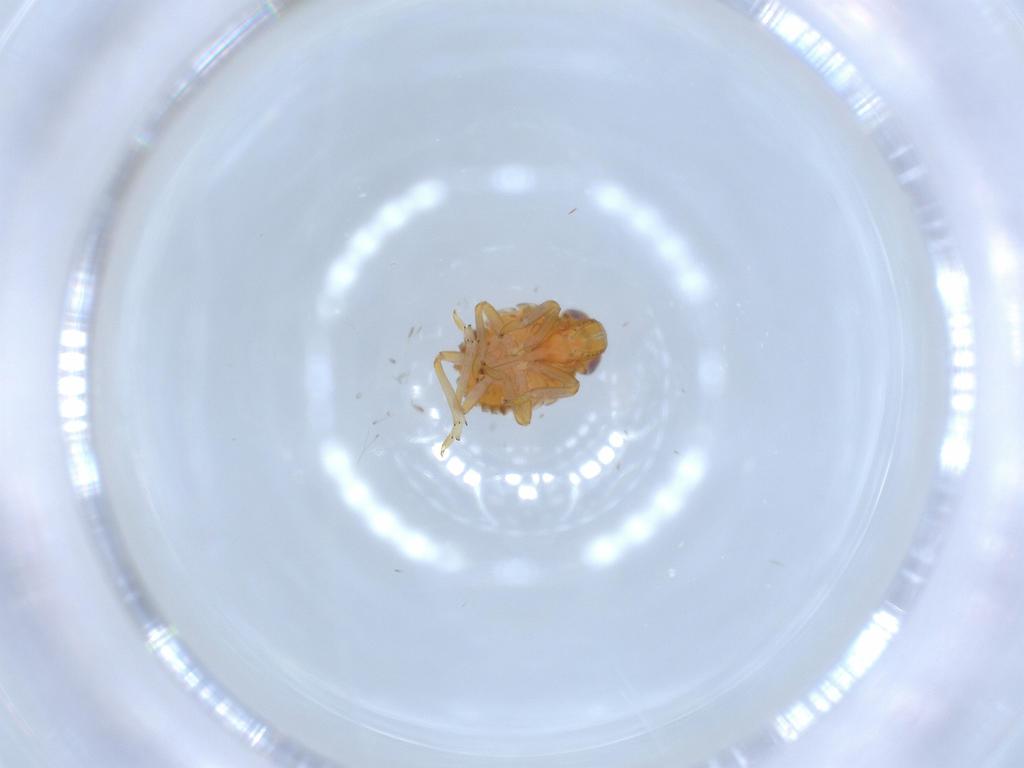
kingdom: Animalia
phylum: Arthropoda
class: Insecta
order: Hemiptera
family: Issidae
